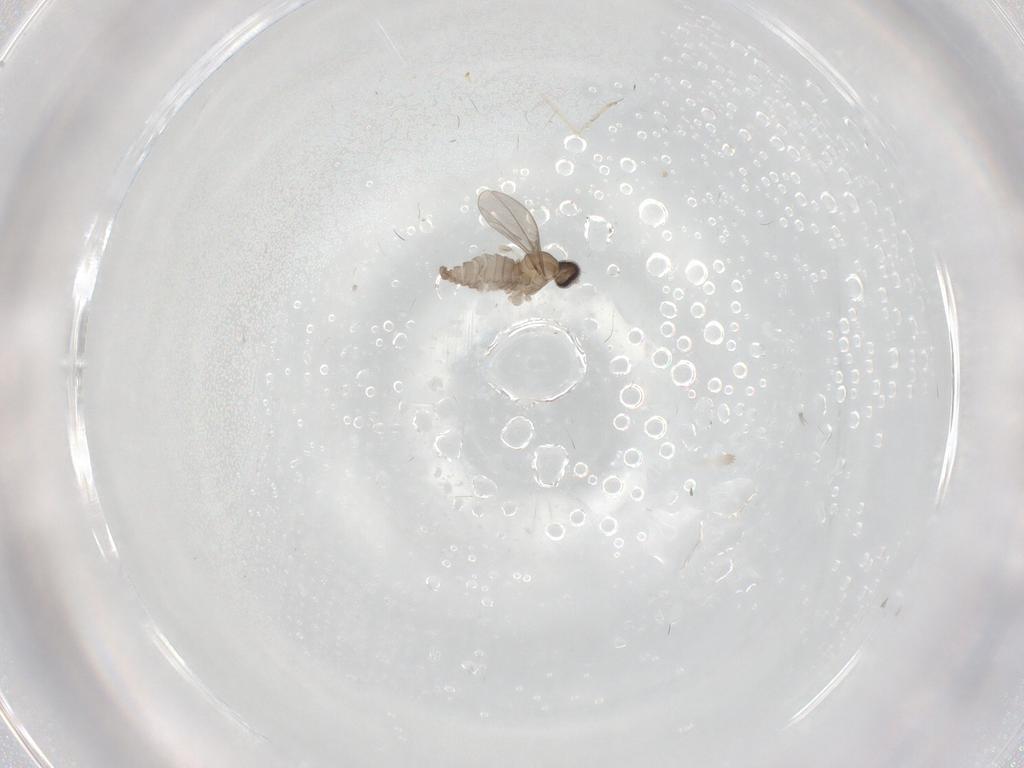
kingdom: Animalia
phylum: Arthropoda
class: Insecta
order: Diptera
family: Cecidomyiidae
